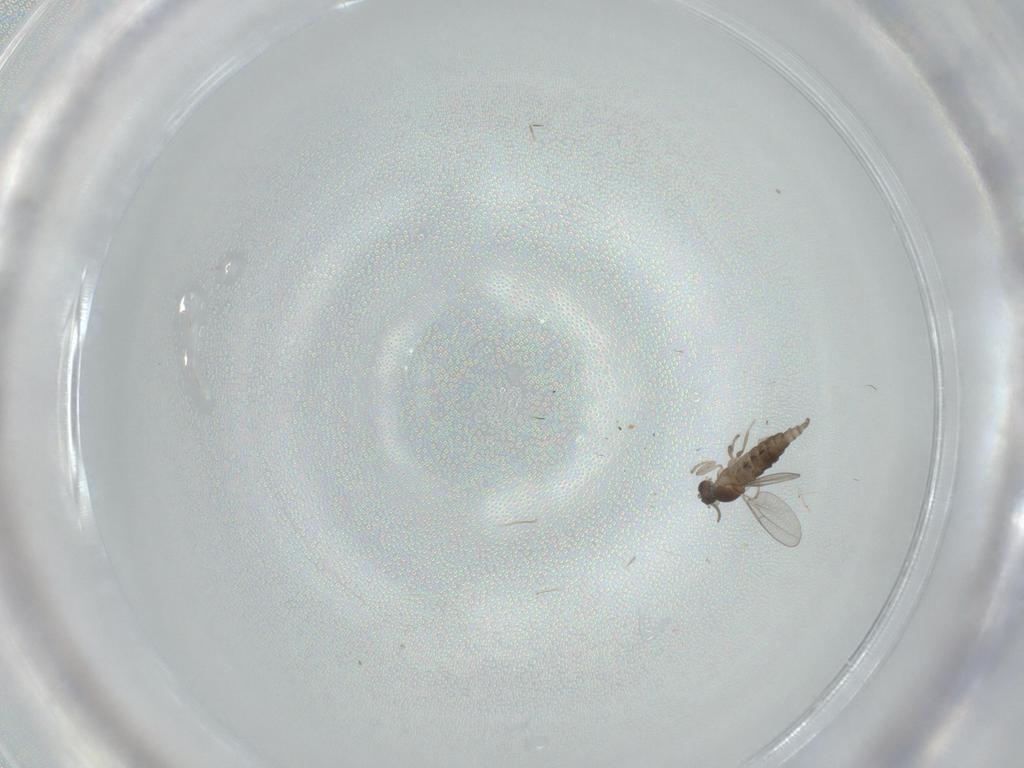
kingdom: Animalia
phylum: Arthropoda
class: Insecta
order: Diptera
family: Cecidomyiidae
